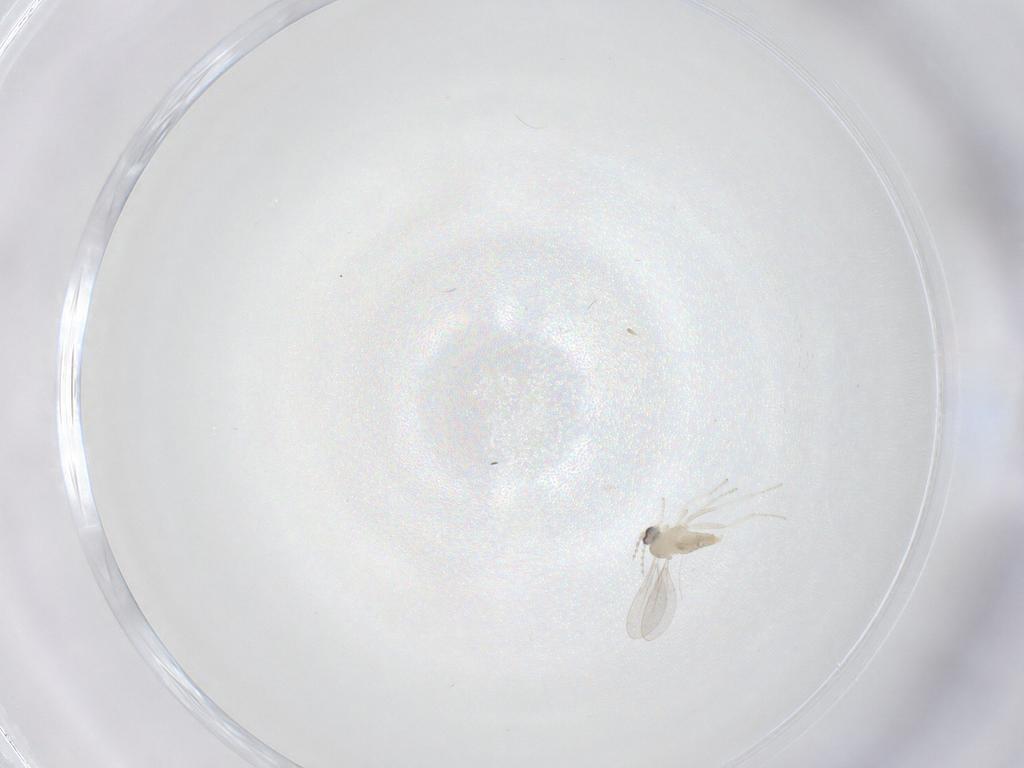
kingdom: Animalia
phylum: Arthropoda
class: Insecta
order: Diptera
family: Cecidomyiidae
